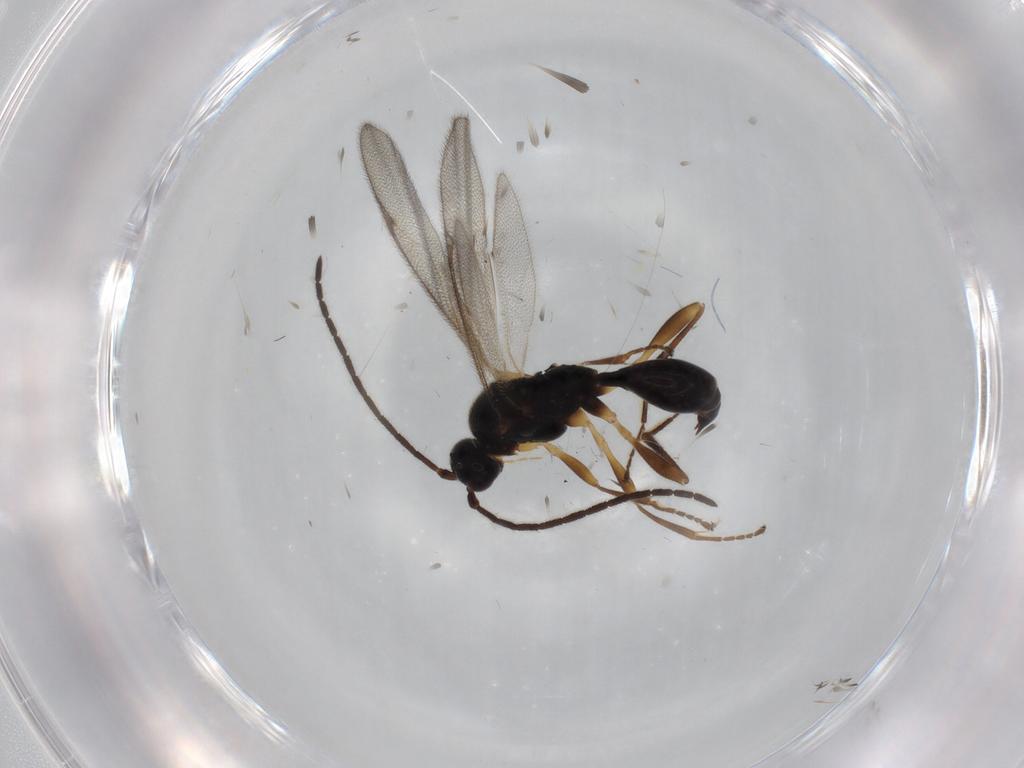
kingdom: Animalia
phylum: Arthropoda
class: Insecta
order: Hymenoptera
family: Proctotrupidae
